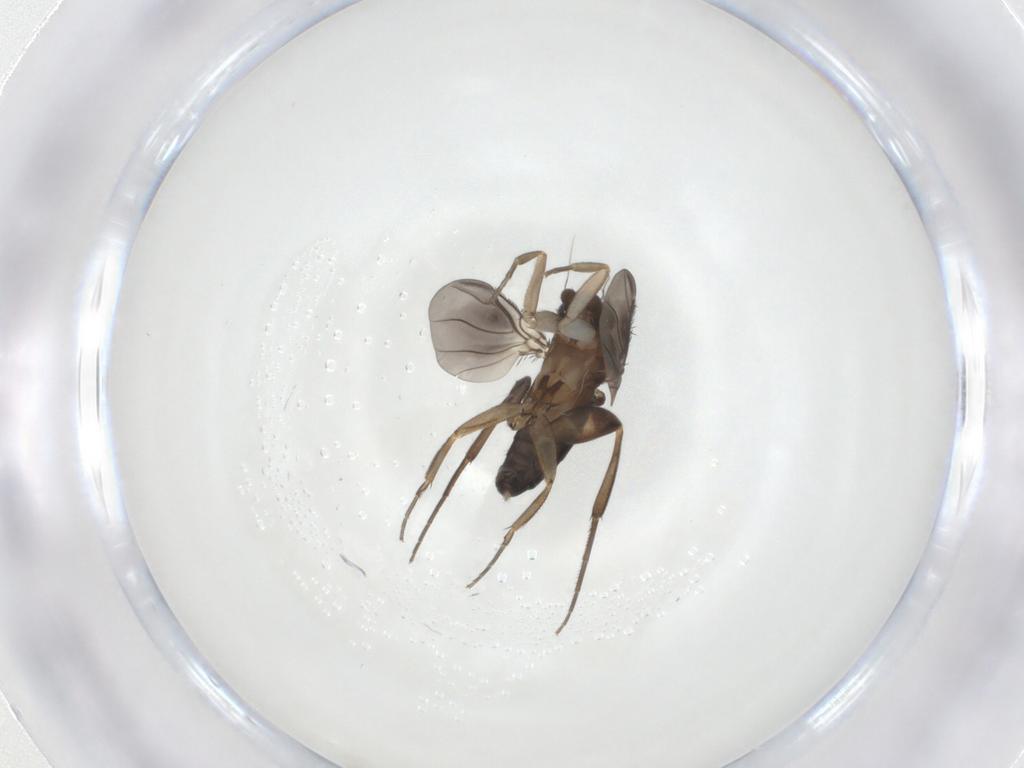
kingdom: Animalia
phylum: Arthropoda
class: Insecta
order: Diptera
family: Phoridae
